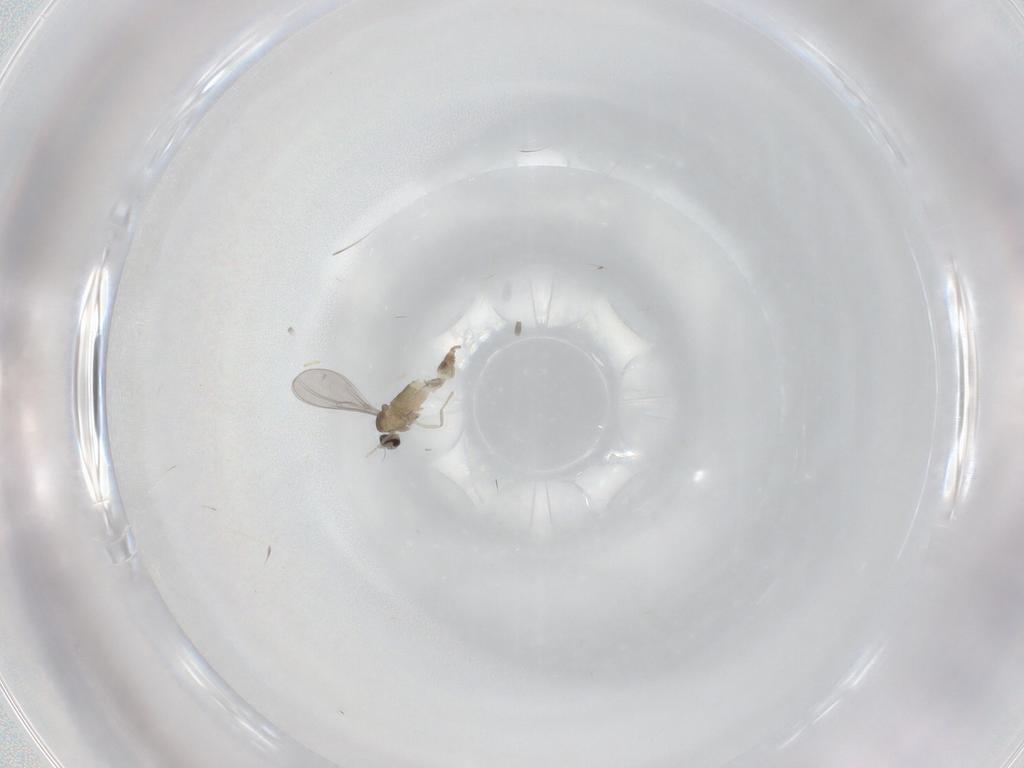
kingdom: Animalia
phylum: Arthropoda
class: Insecta
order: Diptera
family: Cecidomyiidae
